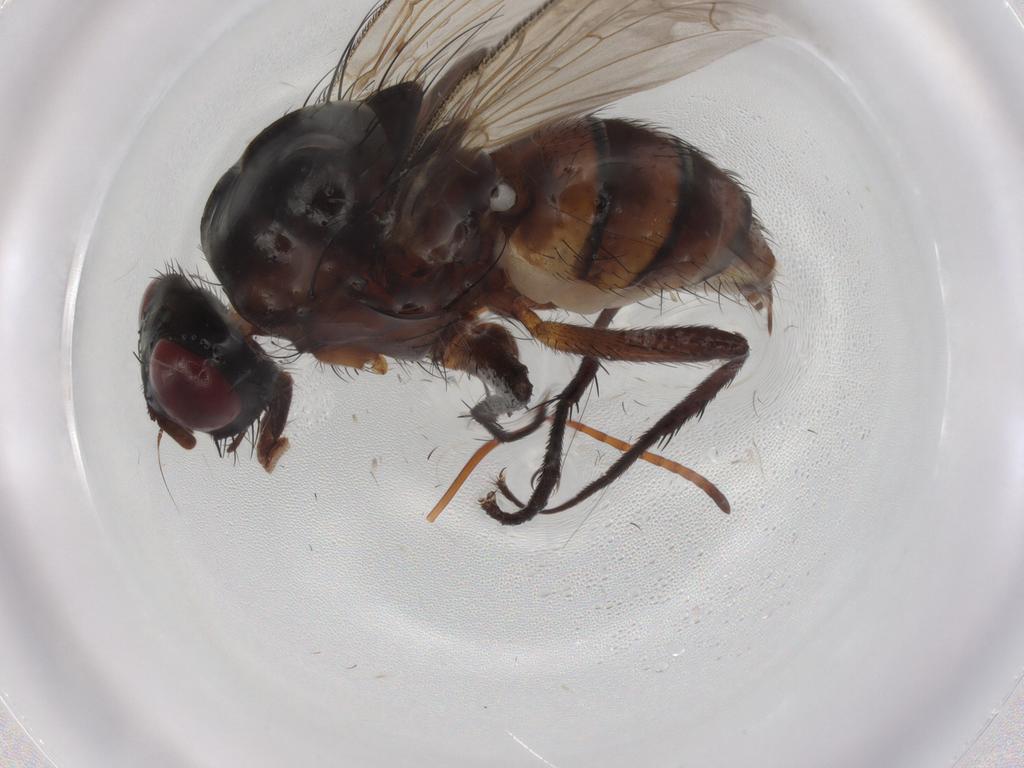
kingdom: Animalia
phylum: Arthropoda
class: Insecta
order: Diptera
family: Anthomyiidae
